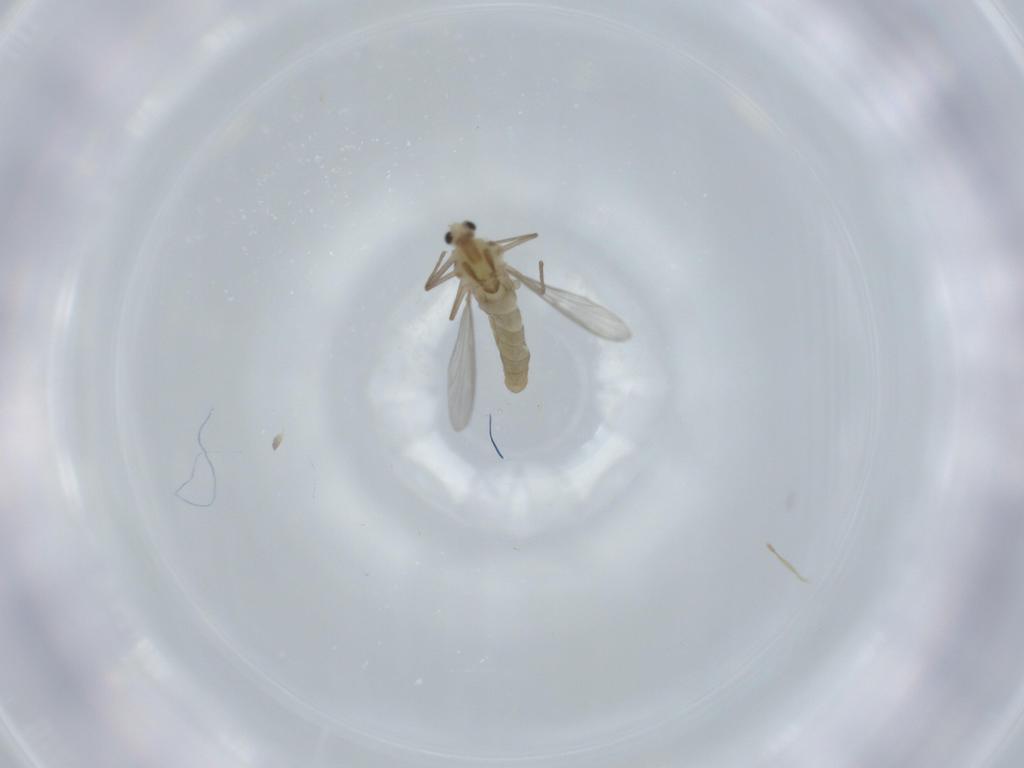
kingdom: Animalia
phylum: Arthropoda
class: Insecta
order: Diptera
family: Chironomidae
